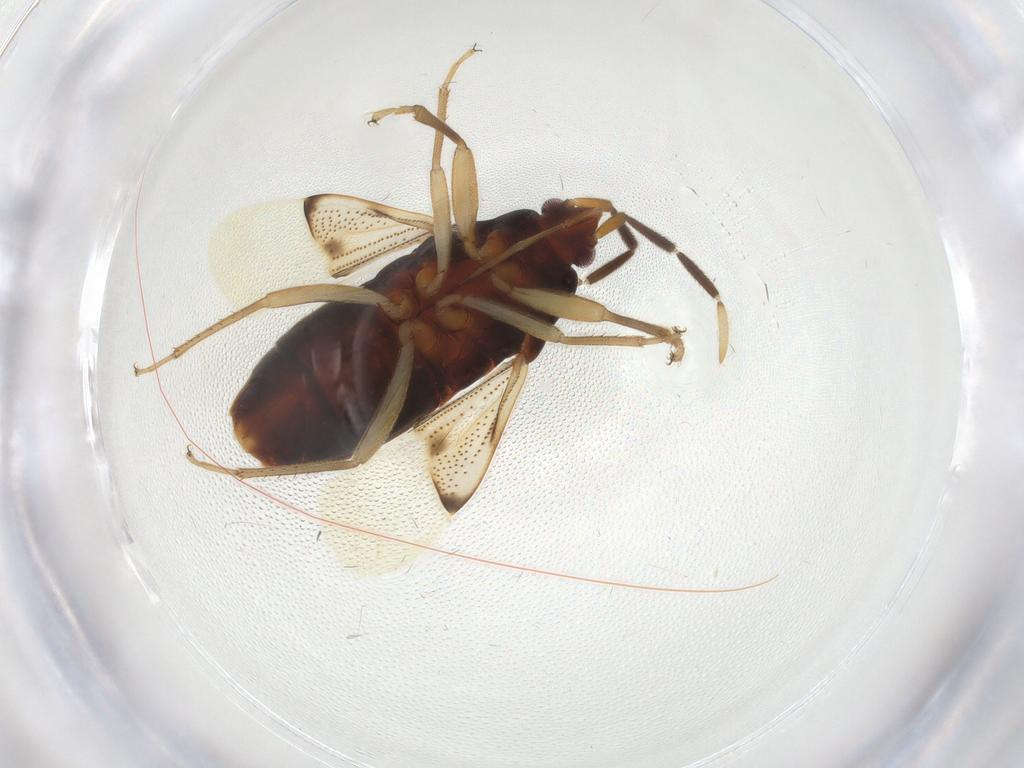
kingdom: Animalia
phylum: Arthropoda
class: Insecta
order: Hemiptera
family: Rhyparochromidae
